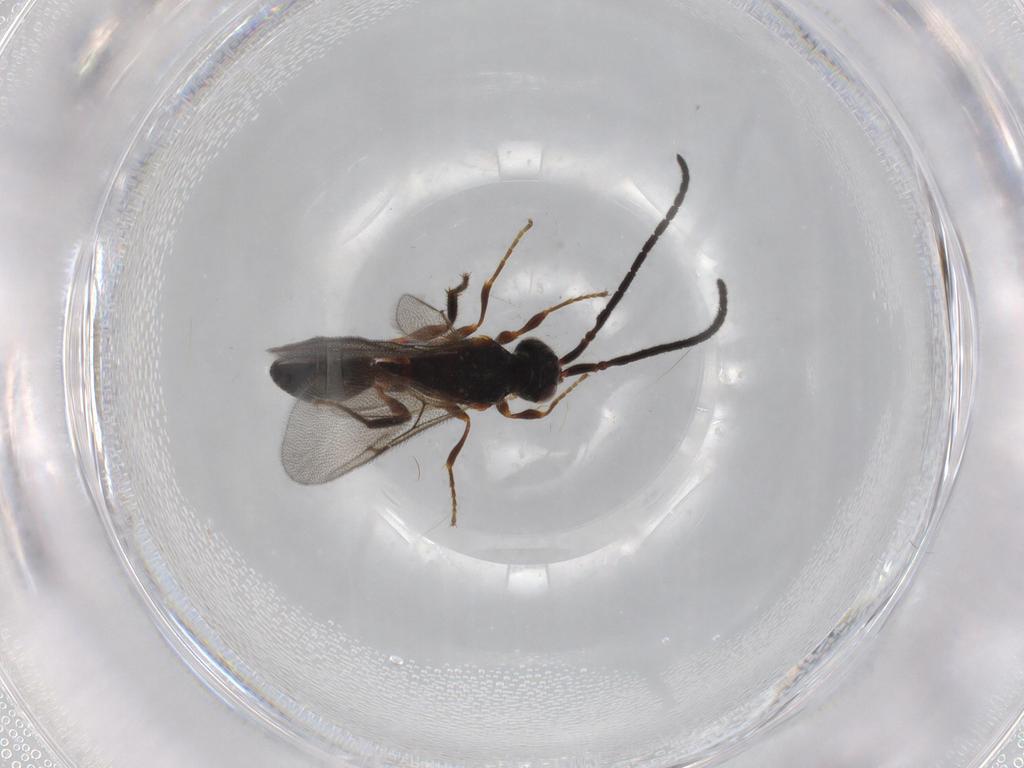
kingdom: Animalia
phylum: Arthropoda
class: Insecta
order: Hymenoptera
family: Diapriidae
